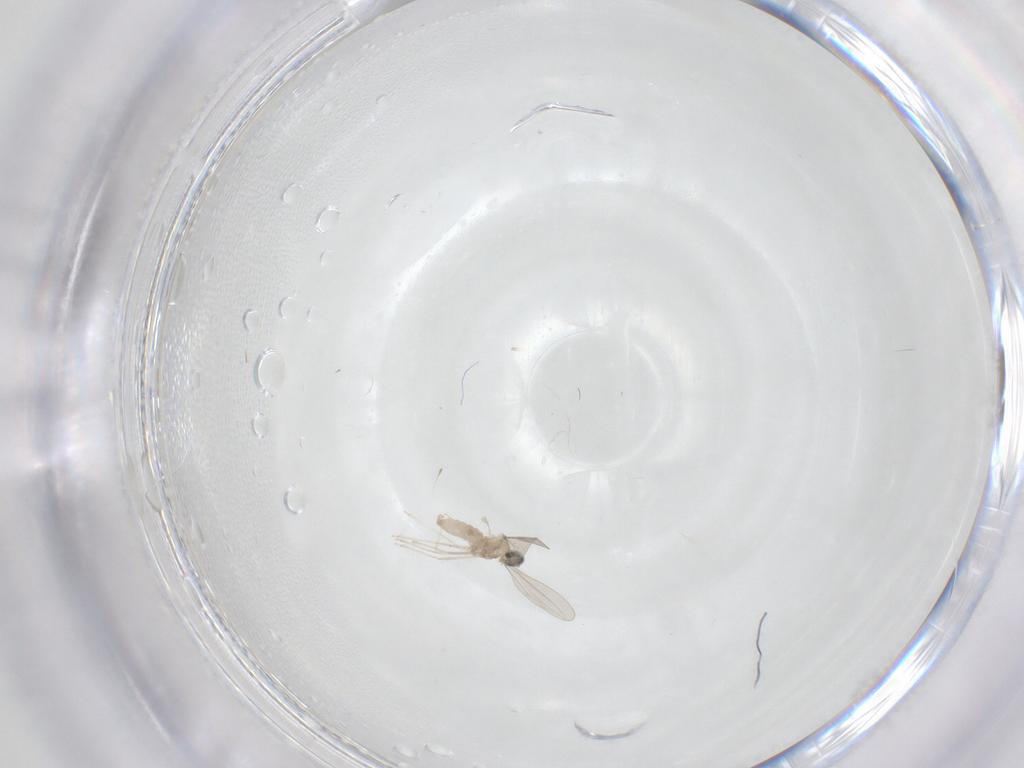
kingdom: Animalia
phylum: Arthropoda
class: Insecta
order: Diptera
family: Cecidomyiidae
